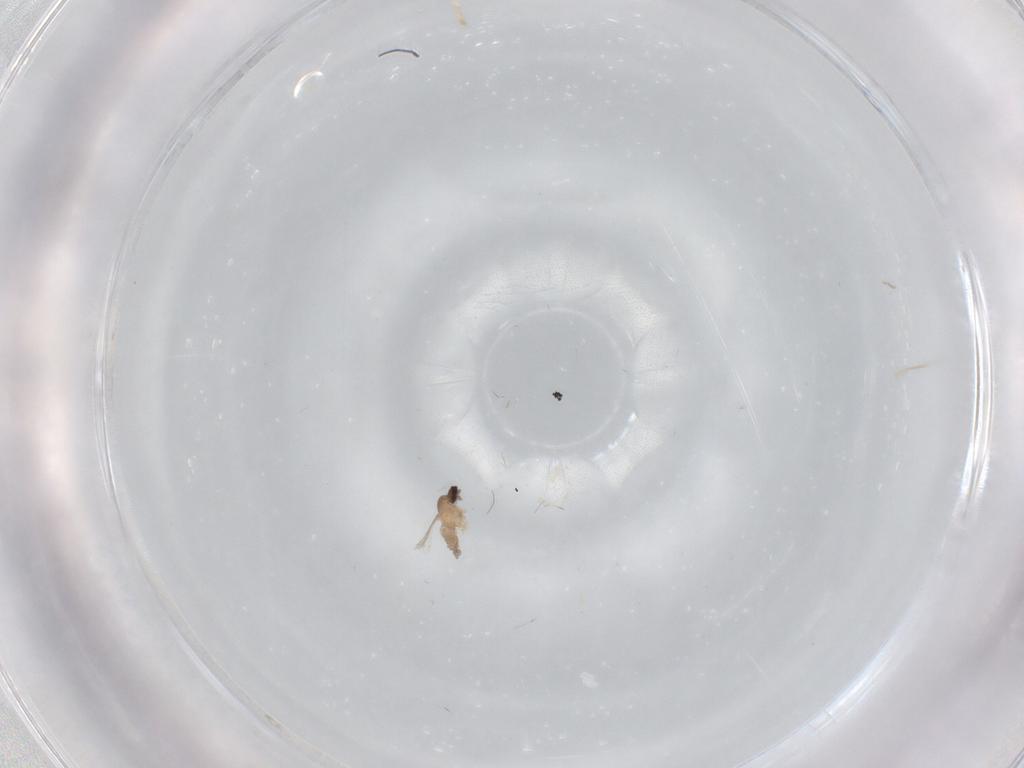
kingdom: Animalia
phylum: Arthropoda
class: Insecta
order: Diptera
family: Cecidomyiidae
